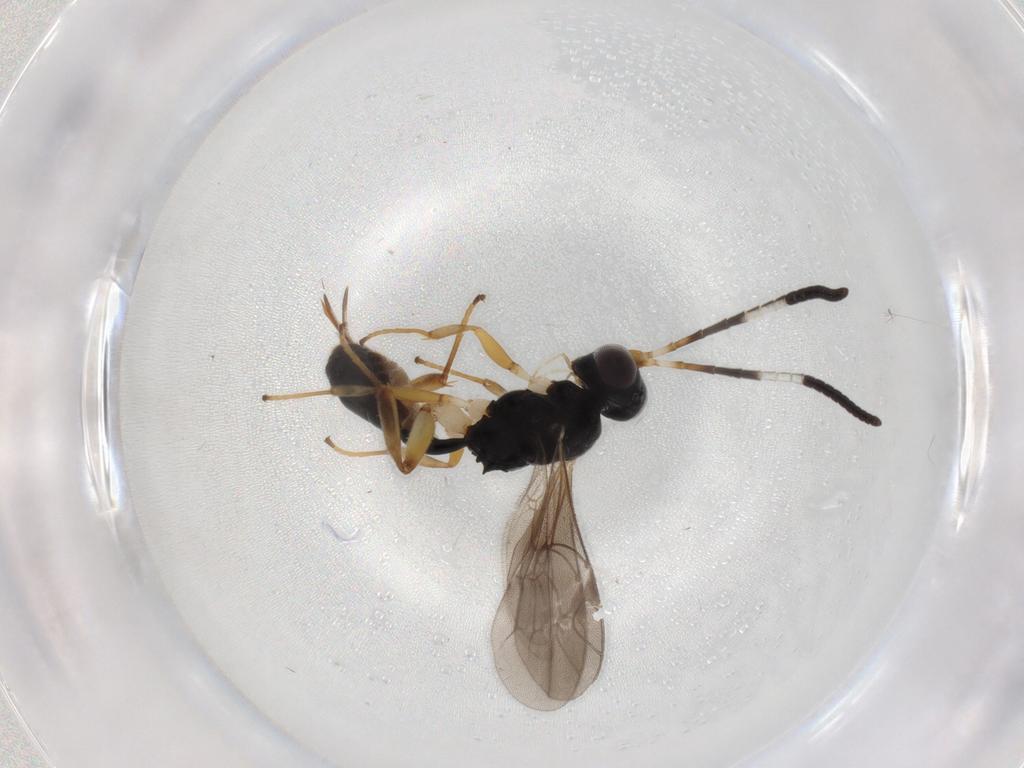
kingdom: Animalia
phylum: Arthropoda
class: Insecta
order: Hymenoptera
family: Ichneumonidae
